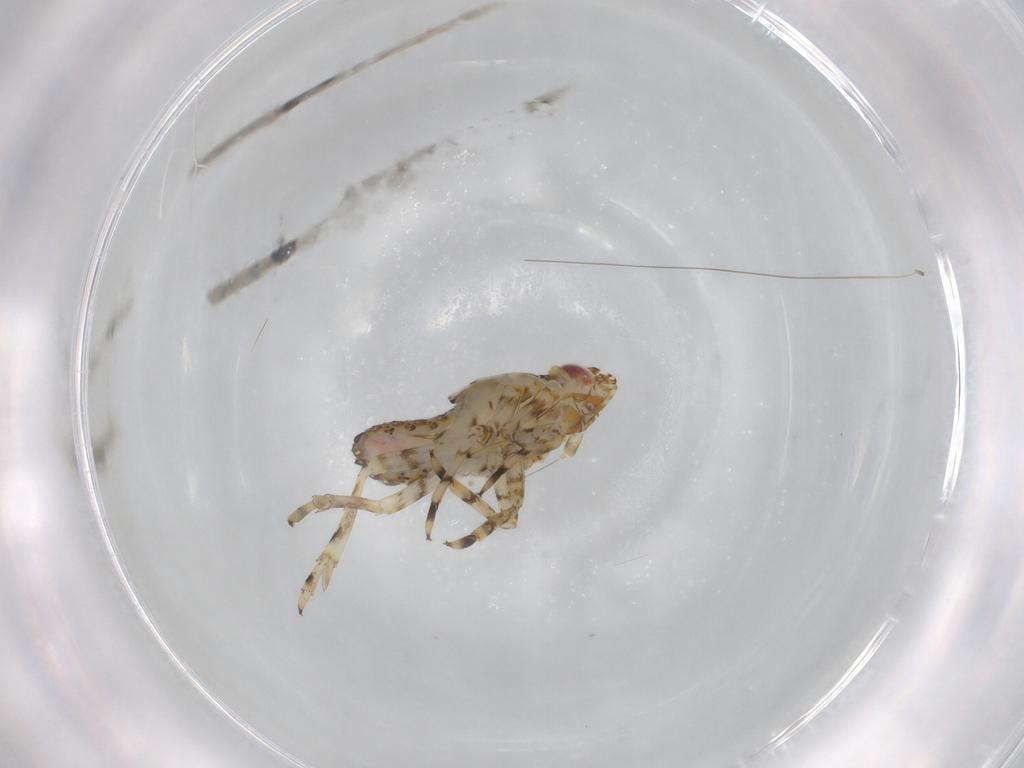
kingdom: Animalia
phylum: Arthropoda
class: Insecta
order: Hemiptera
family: Delphacidae
